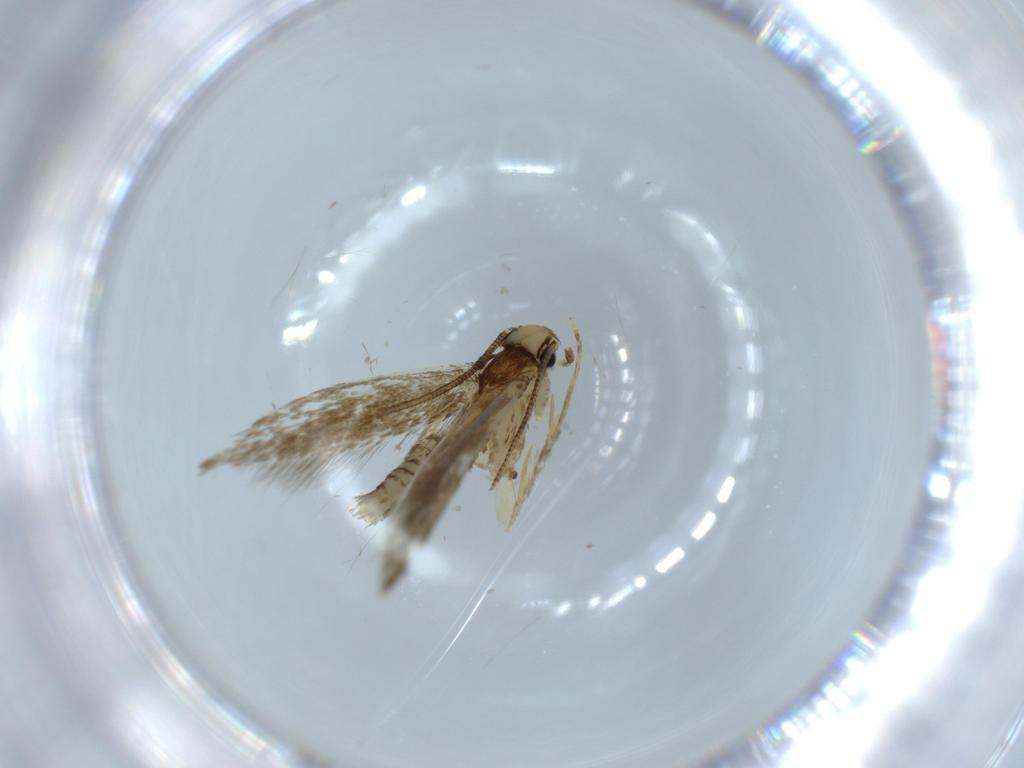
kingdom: Animalia
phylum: Arthropoda
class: Insecta
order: Lepidoptera
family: Tineidae
